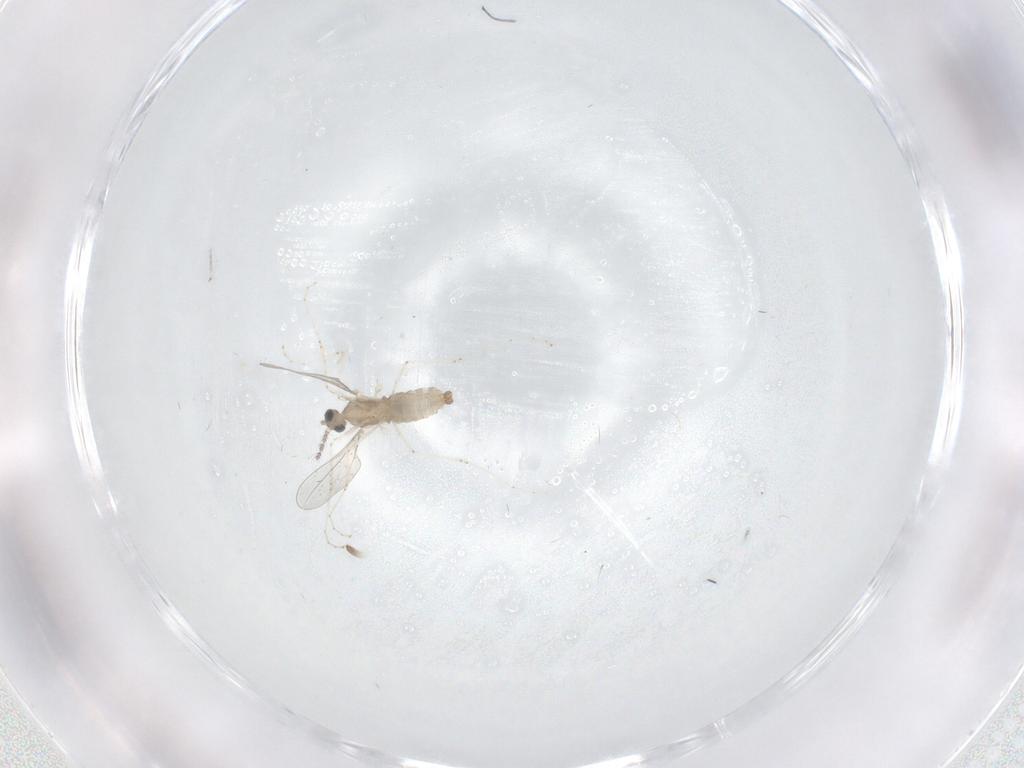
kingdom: Animalia
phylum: Arthropoda
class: Insecta
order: Diptera
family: Cecidomyiidae
